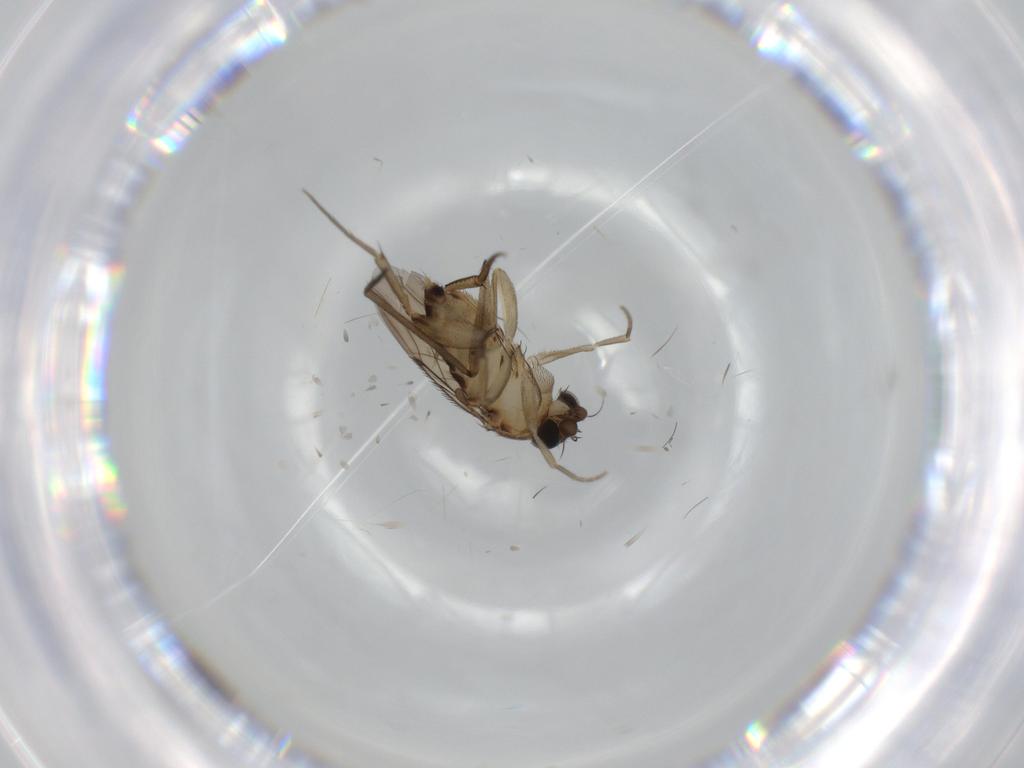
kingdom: Animalia
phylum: Arthropoda
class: Insecta
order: Diptera
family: Phoridae
